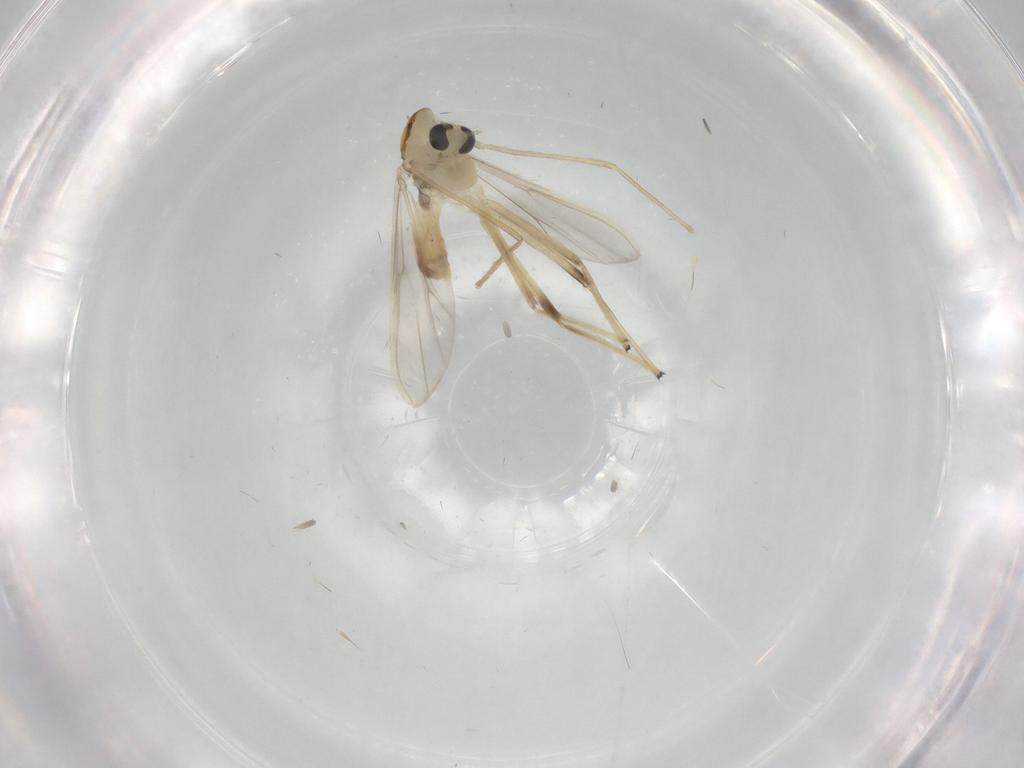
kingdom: Animalia
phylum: Arthropoda
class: Insecta
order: Diptera
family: Chironomidae
